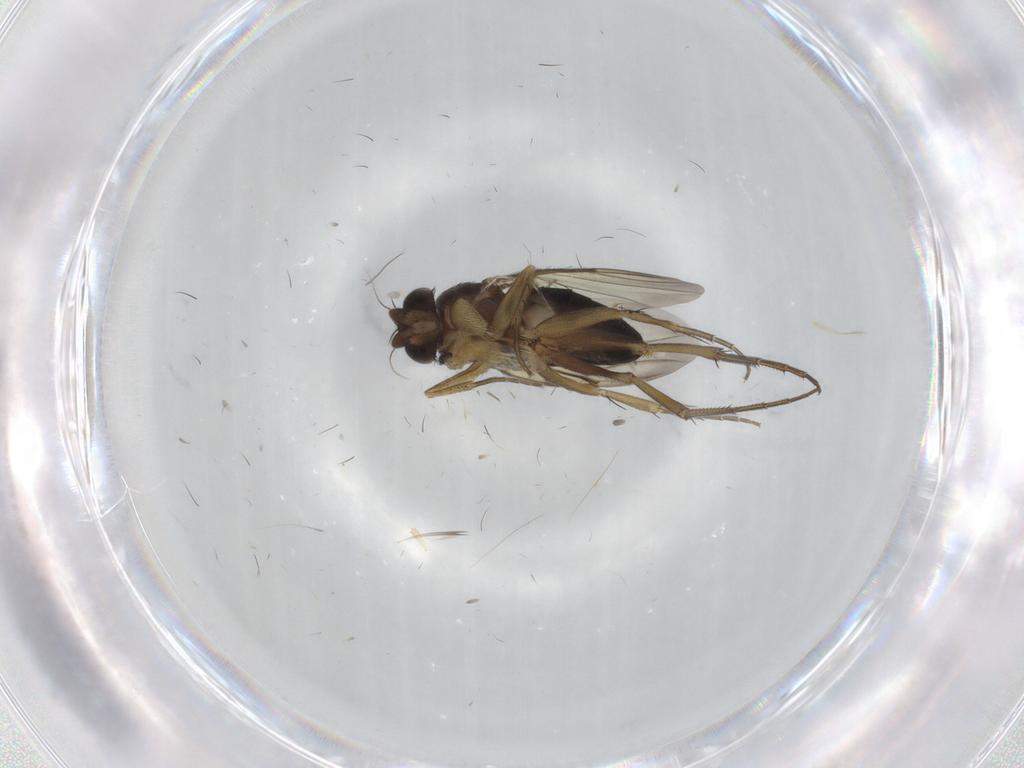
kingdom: Animalia
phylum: Arthropoda
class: Insecta
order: Diptera
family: Phoridae
